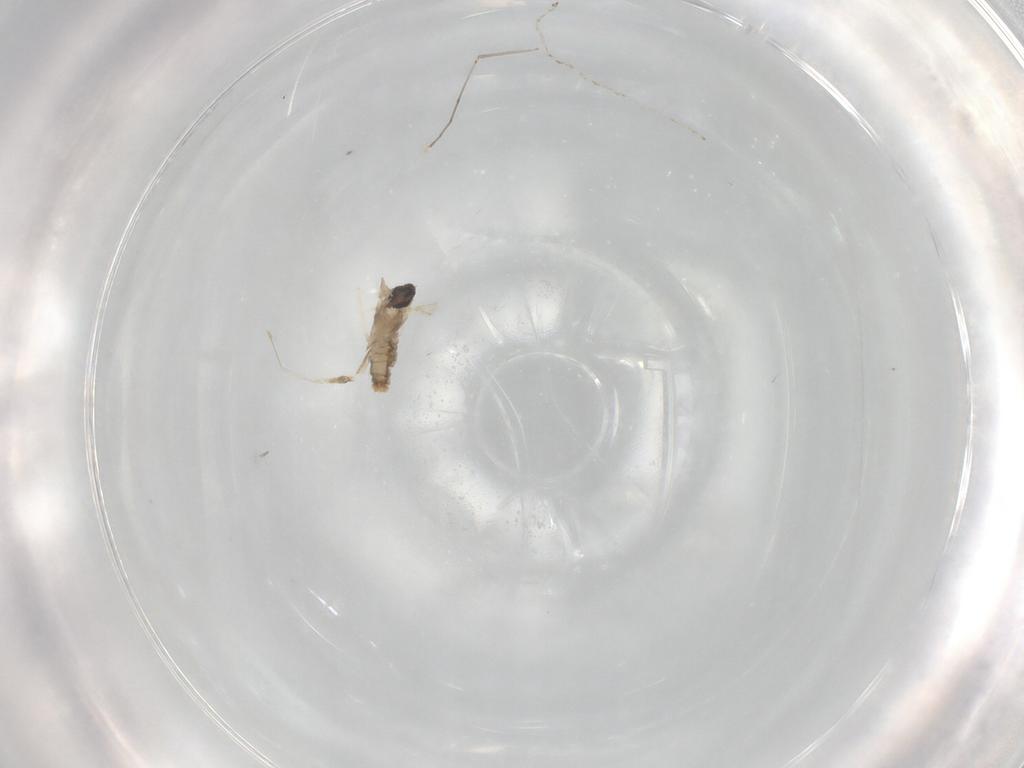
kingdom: Animalia
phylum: Arthropoda
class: Insecta
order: Diptera
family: Cecidomyiidae
